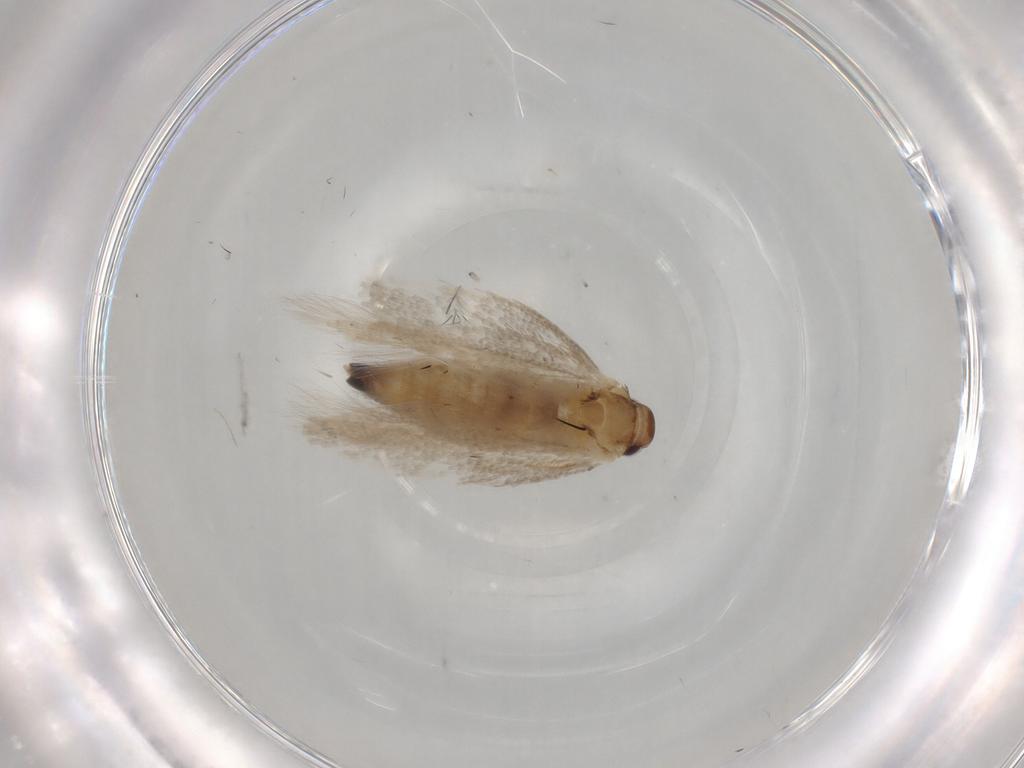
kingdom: Animalia
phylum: Arthropoda
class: Insecta
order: Lepidoptera
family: Gelechiidae
